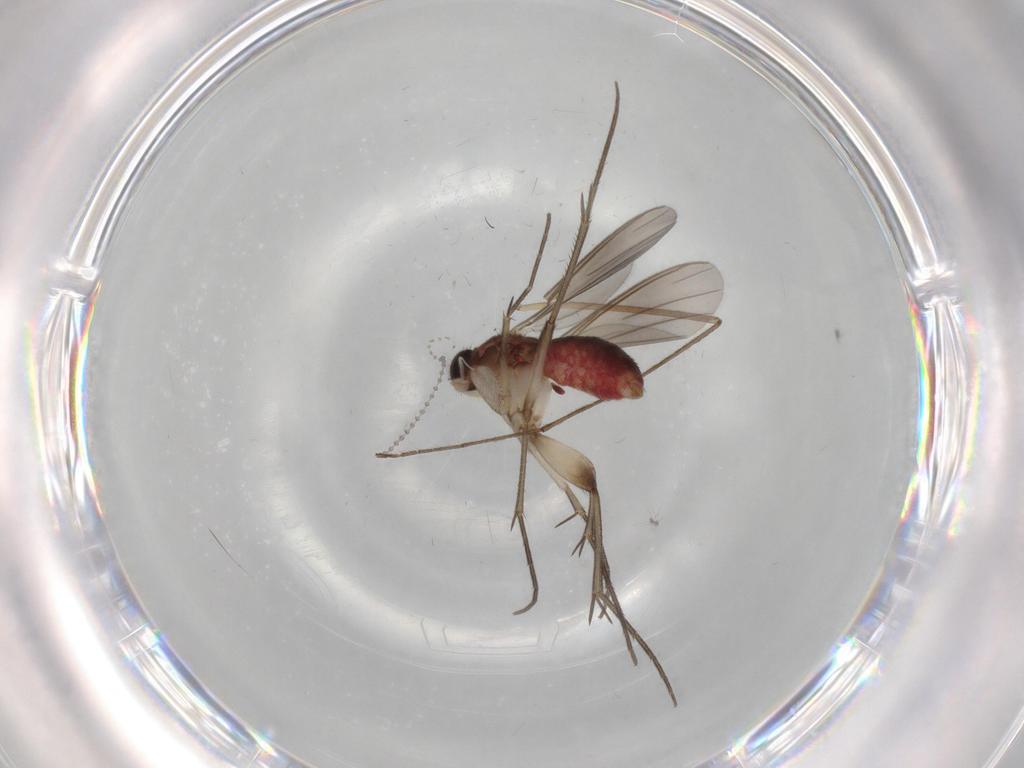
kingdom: Animalia
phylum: Arthropoda
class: Insecta
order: Diptera
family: Mycetophilidae
